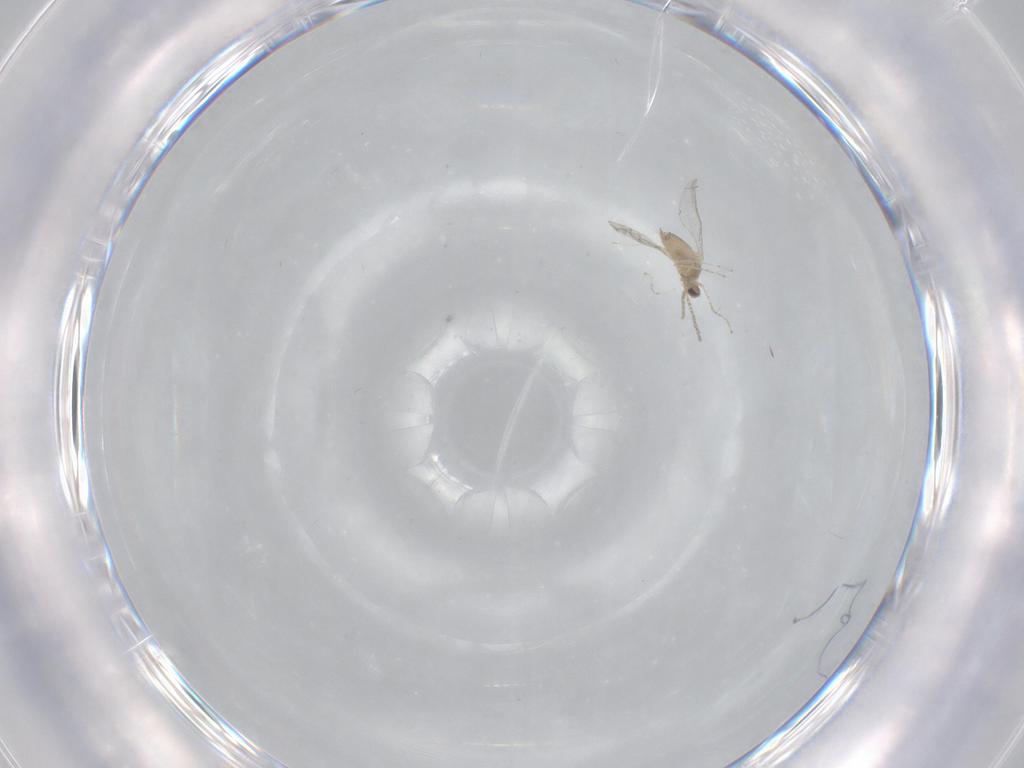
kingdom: Animalia
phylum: Arthropoda
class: Insecta
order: Diptera
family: Cecidomyiidae
